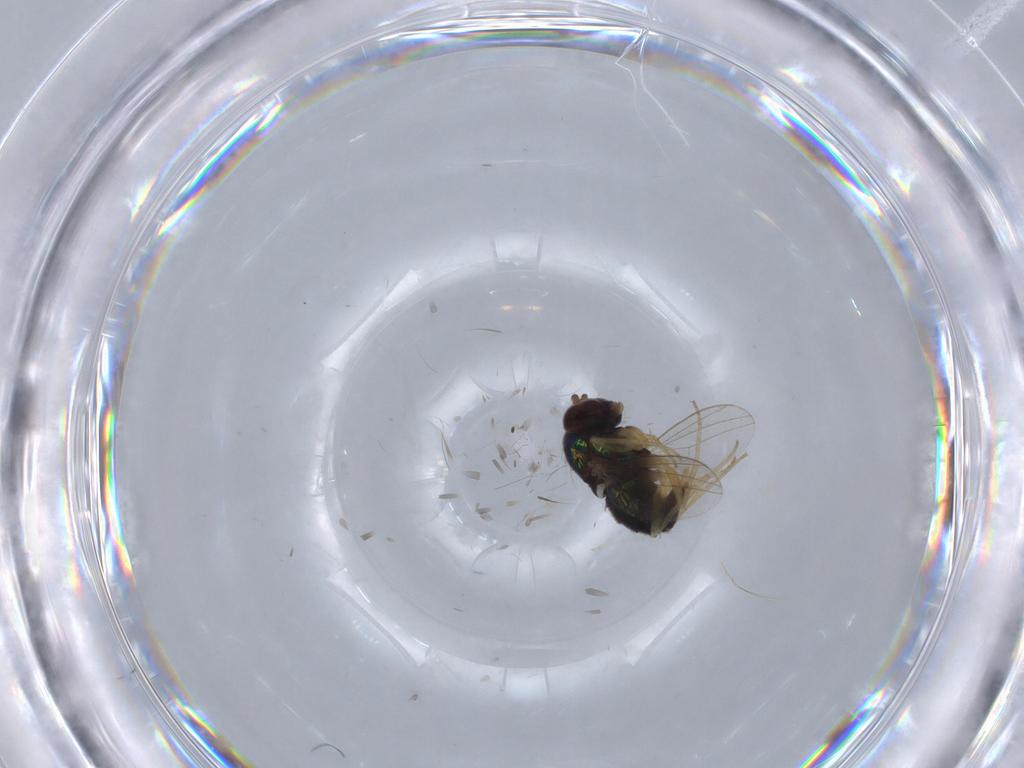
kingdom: Animalia
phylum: Arthropoda
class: Insecta
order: Diptera
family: Dolichopodidae
